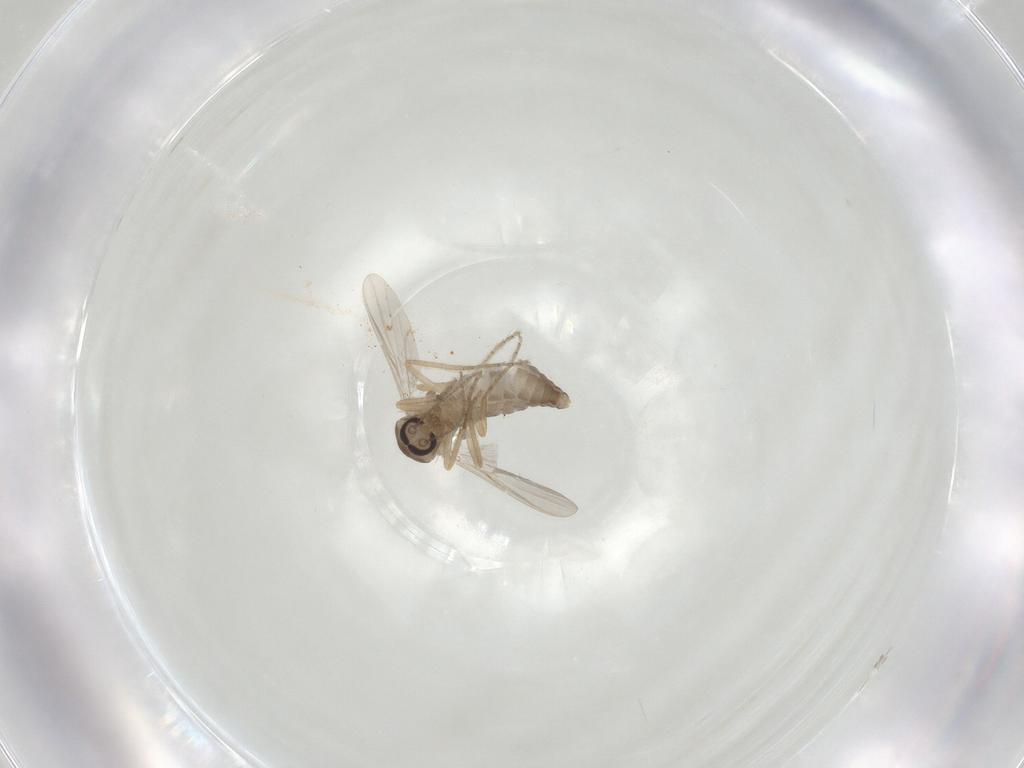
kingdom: Animalia
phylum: Arthropoda
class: Insecta
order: Diptera
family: Ceratopogonidae
